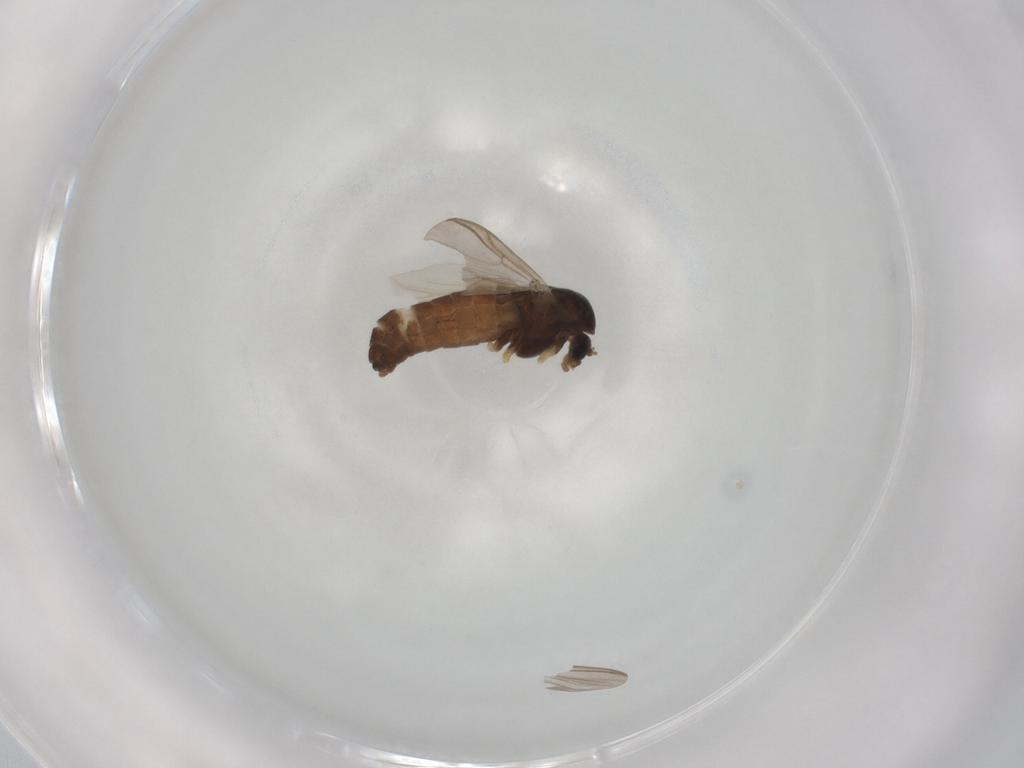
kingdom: Animalia
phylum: Arthropoda
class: Insecta
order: Diptera
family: Chironomidae
